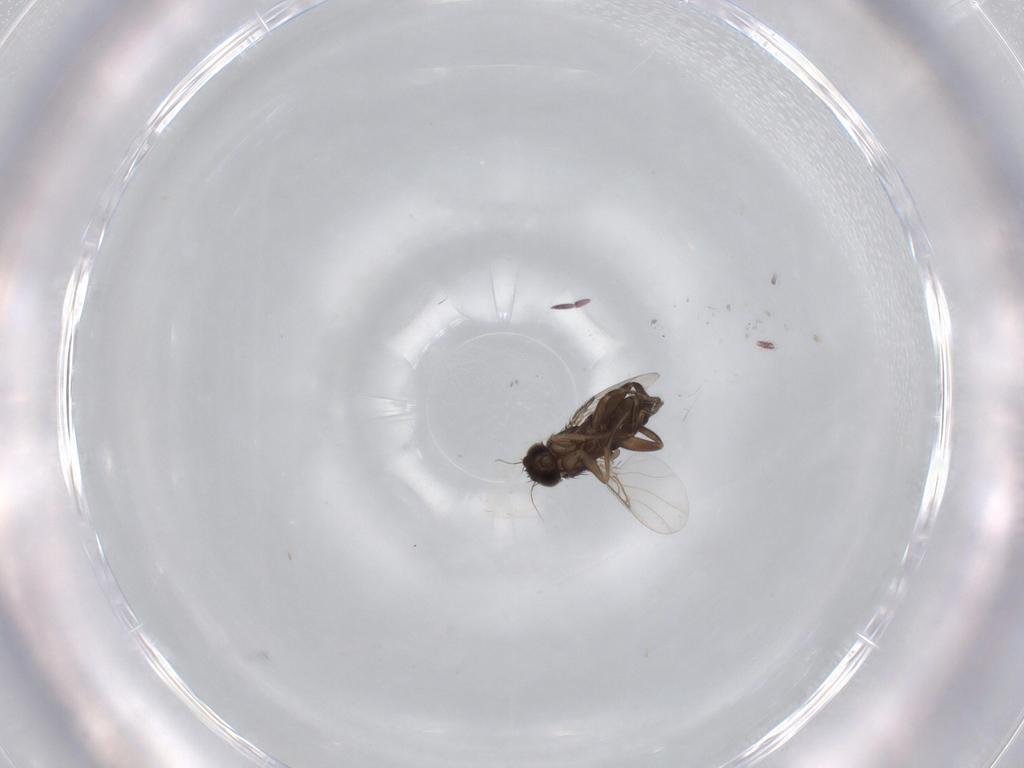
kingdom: Animalia
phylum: Arthropoda
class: Insecta
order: Diptera
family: Phoridae
